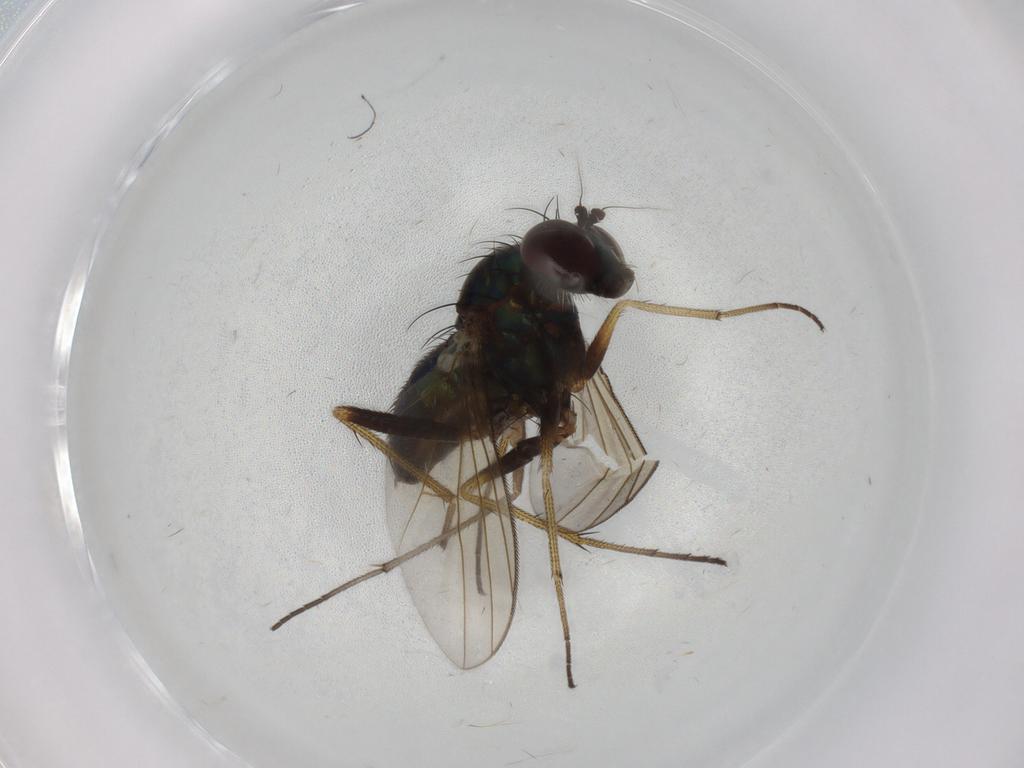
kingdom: Animalia
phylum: Arthropoda
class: Insecta
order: Diptera
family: Dolichopodidae
